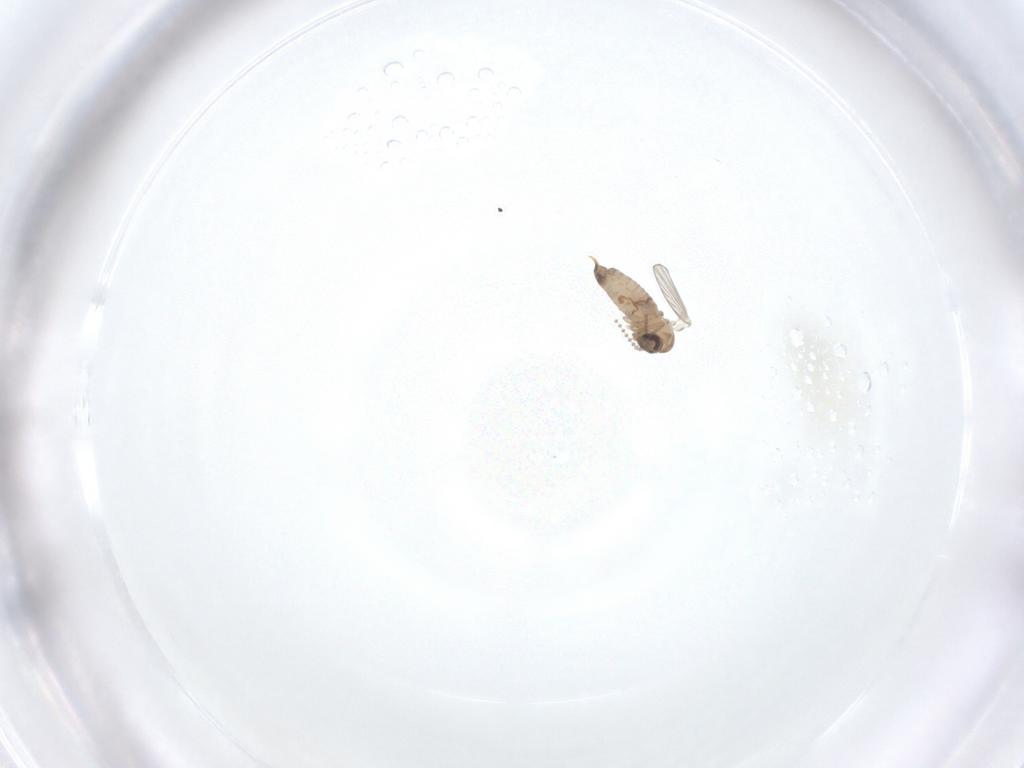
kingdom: Animalia
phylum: Arthropoda
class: Insecta
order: Diptera
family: Psychodidae
